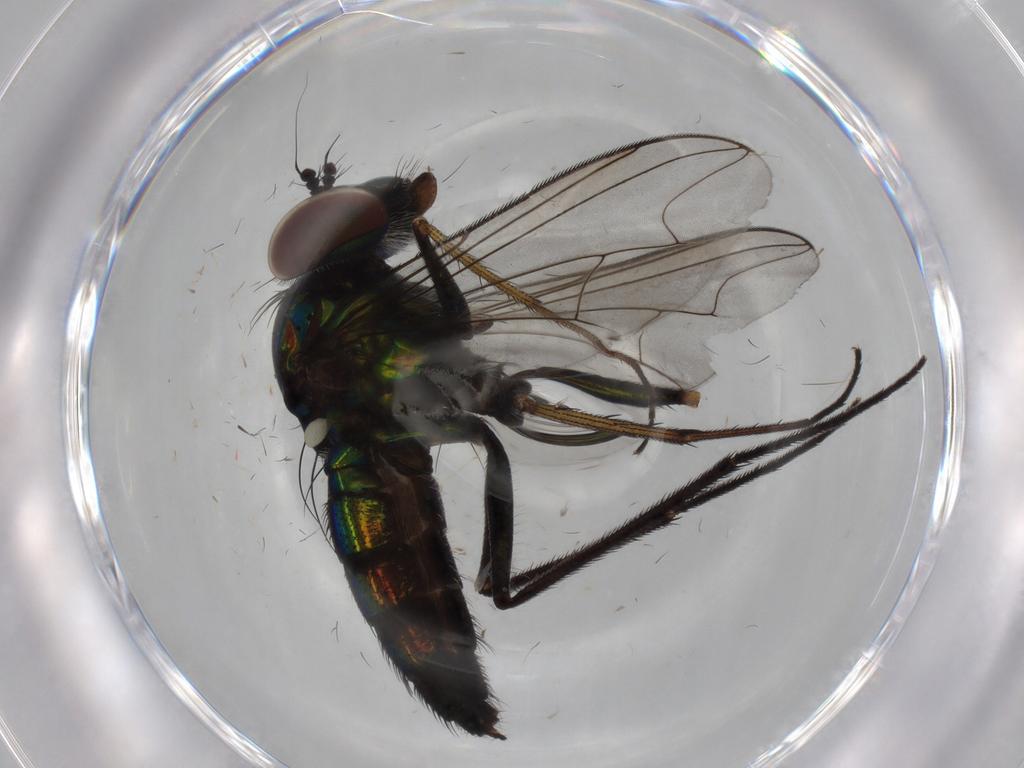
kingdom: Animalia
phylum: Arthropoda
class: Insecta
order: Diptera
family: Dolichopodidae
